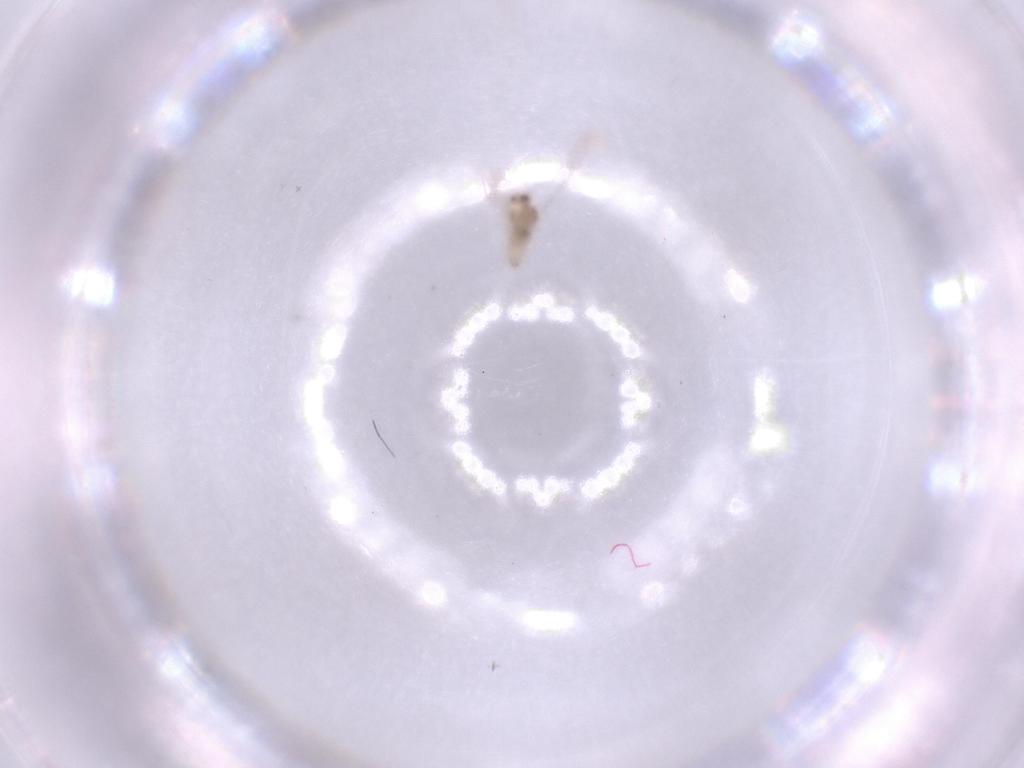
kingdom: Animalia
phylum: Arthropoda
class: Insecta
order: Diptera
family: Cecidomyiidae
